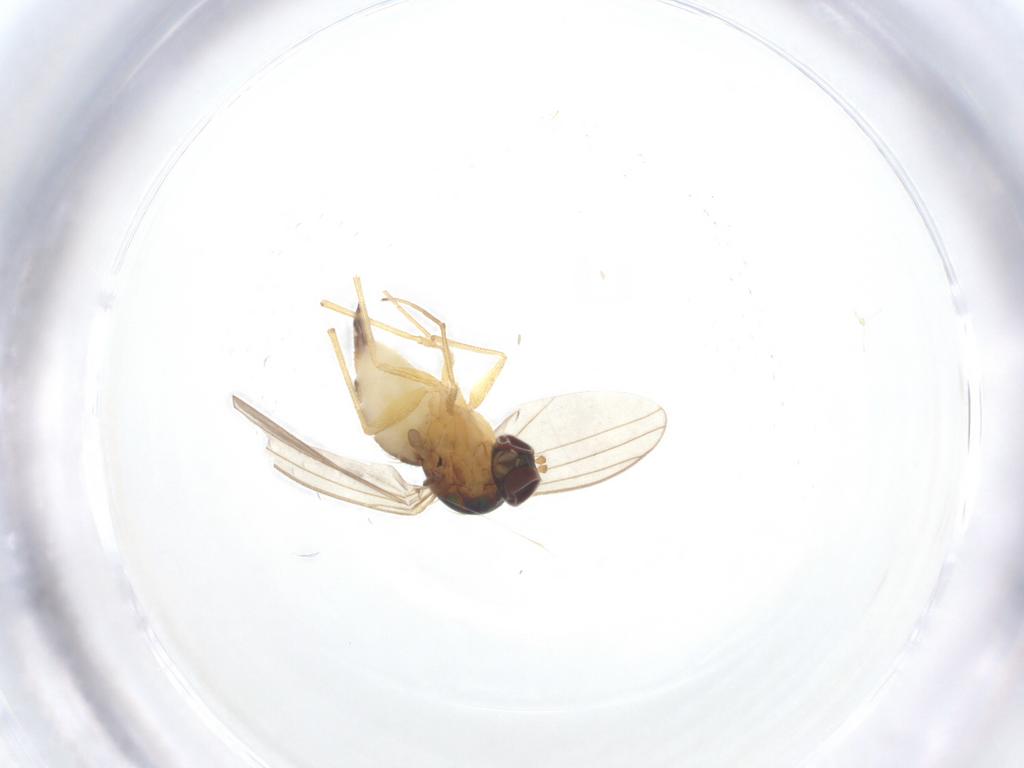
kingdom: Animalia
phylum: Arthropoda
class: Insecta
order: Diptera
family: Dolichopodidae
